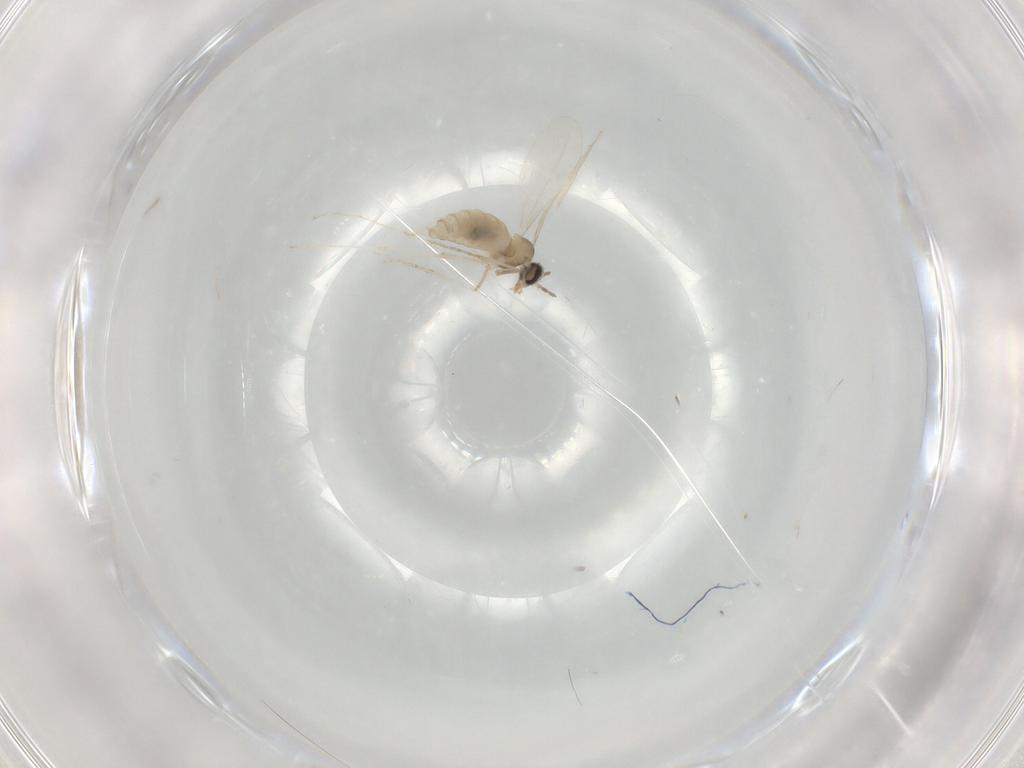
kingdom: Animalia
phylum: Arthropoda
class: Insecta
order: Diptera
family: Cecidomyiidae
